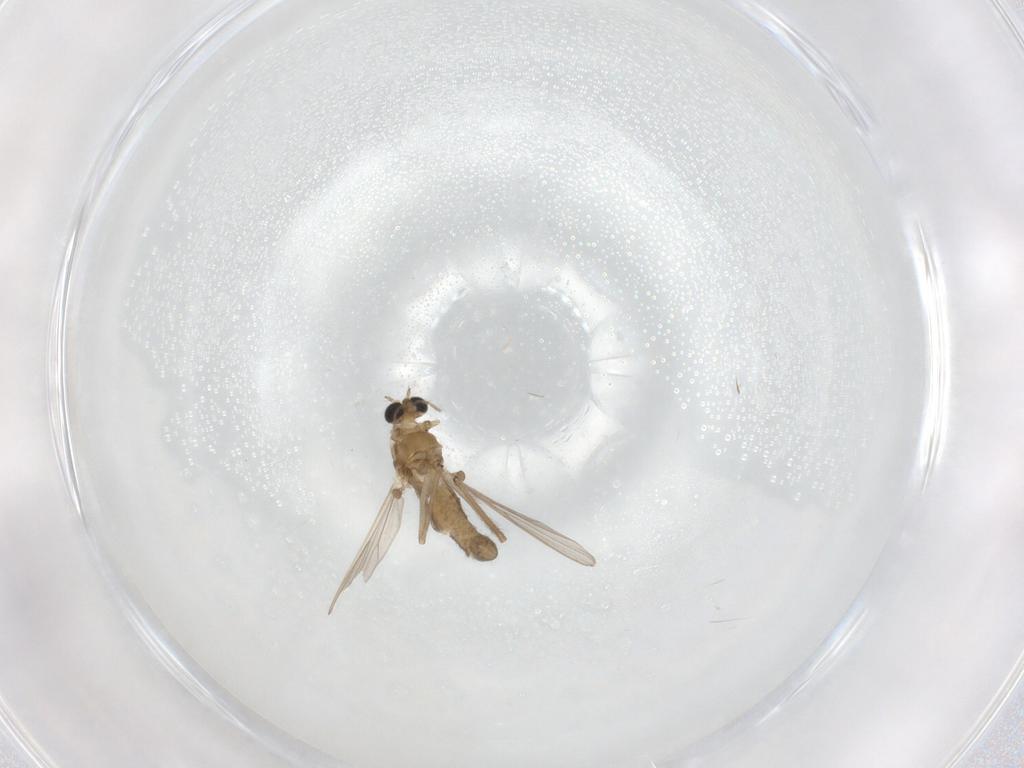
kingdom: Animalia
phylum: Arthropoda
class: Insecta
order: Diptera
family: Chironomidae
